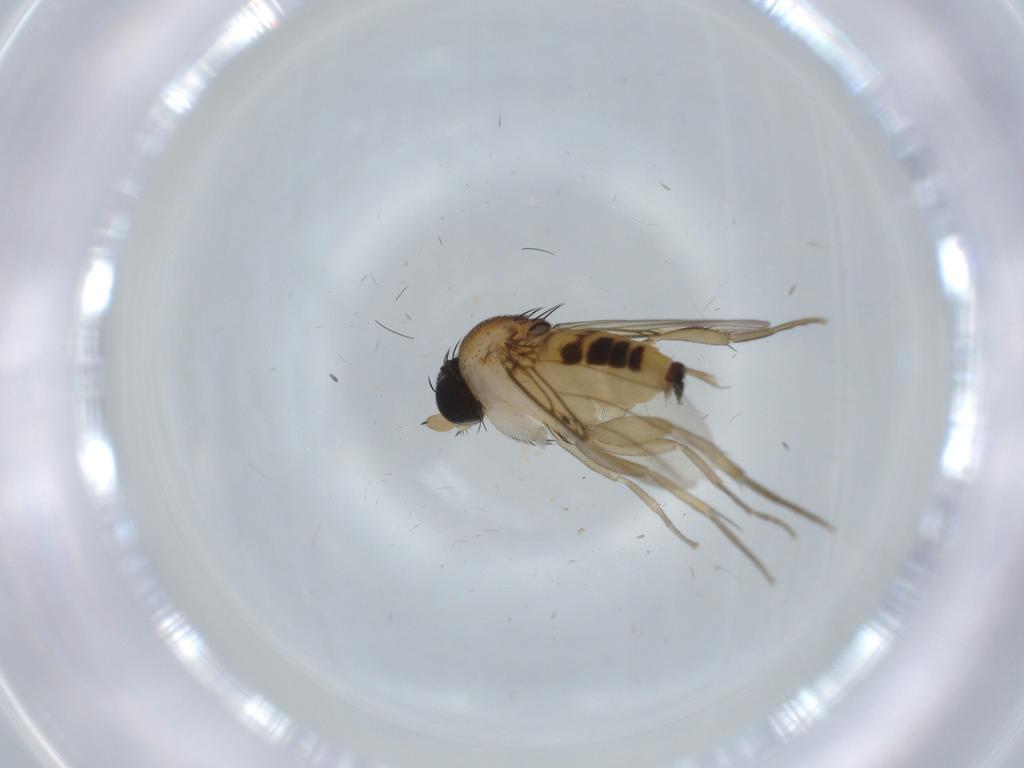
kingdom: Animalia
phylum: Arthropoda
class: Insecta
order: Diptera
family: Phoridae
